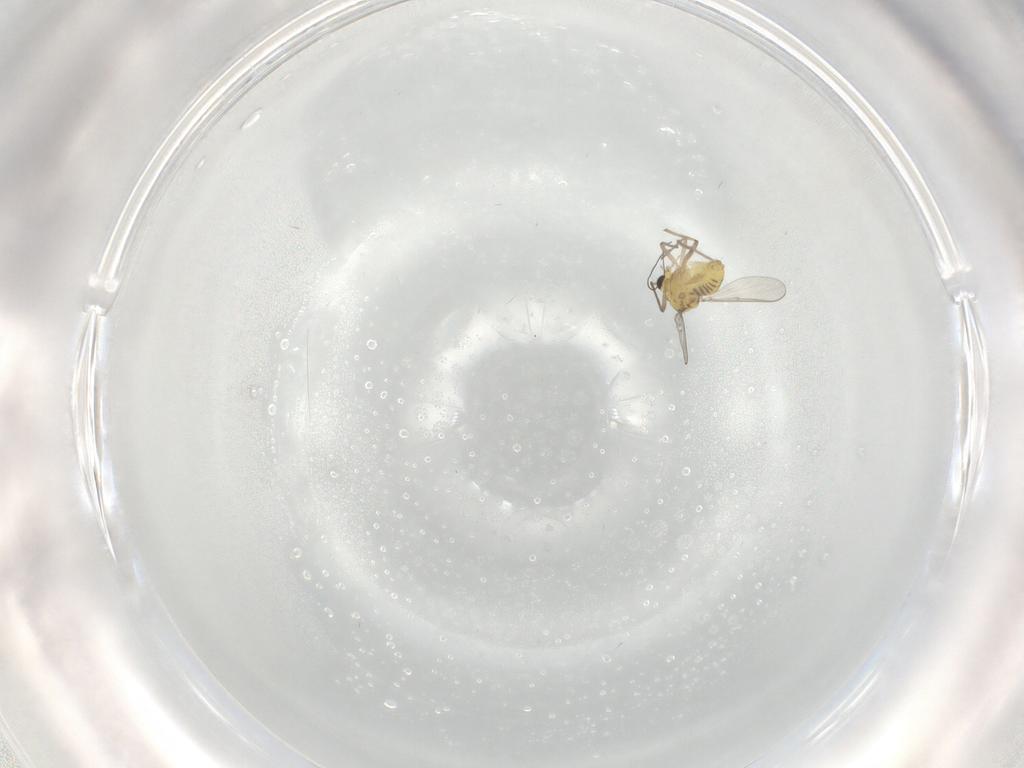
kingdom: Animalia
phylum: Arthropoda
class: Insecta
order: Diptera
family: Chironomidae
